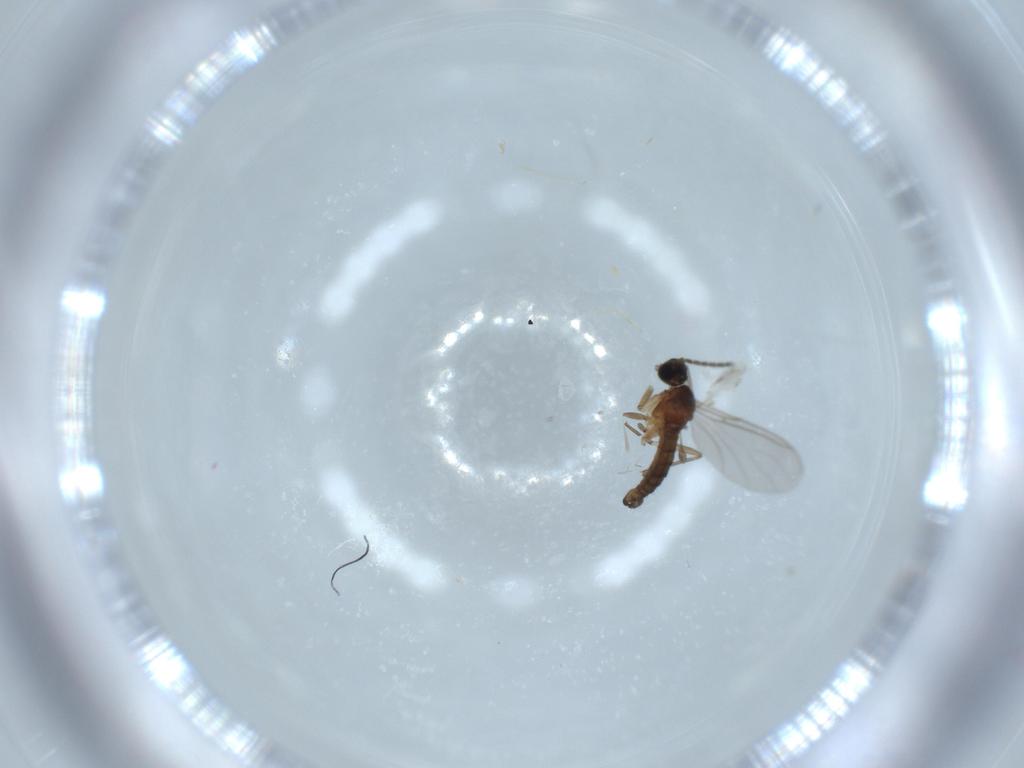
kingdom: Animalia
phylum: Arthropoda
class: Insecta
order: Diptera
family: Sciaridae
